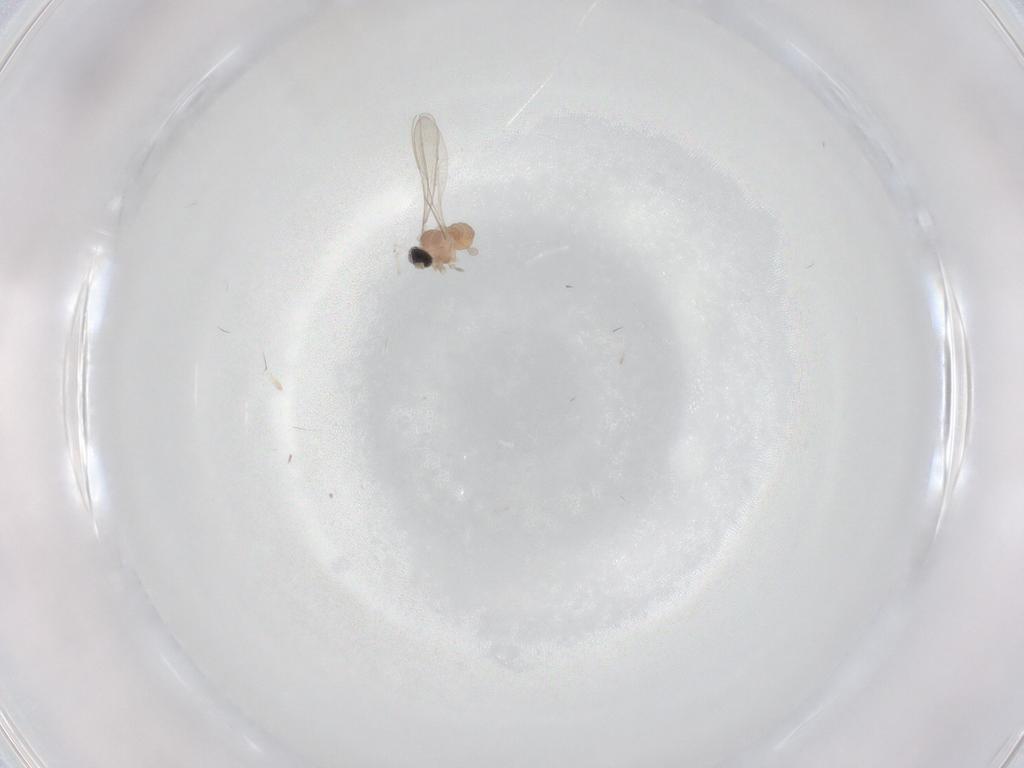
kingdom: Animalia
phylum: Arthropoda
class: Insecta
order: Diptera
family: Cecidomyiidae
